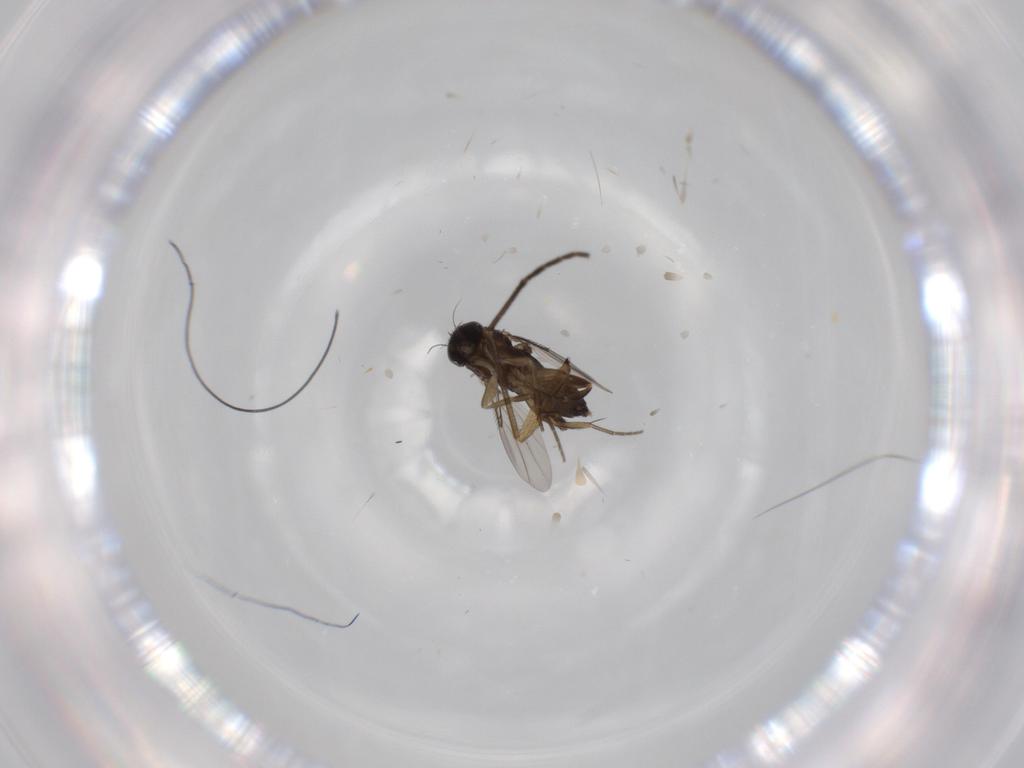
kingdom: Animalia
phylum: Arthropoda
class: Insecta
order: Diptera
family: Phoridae
